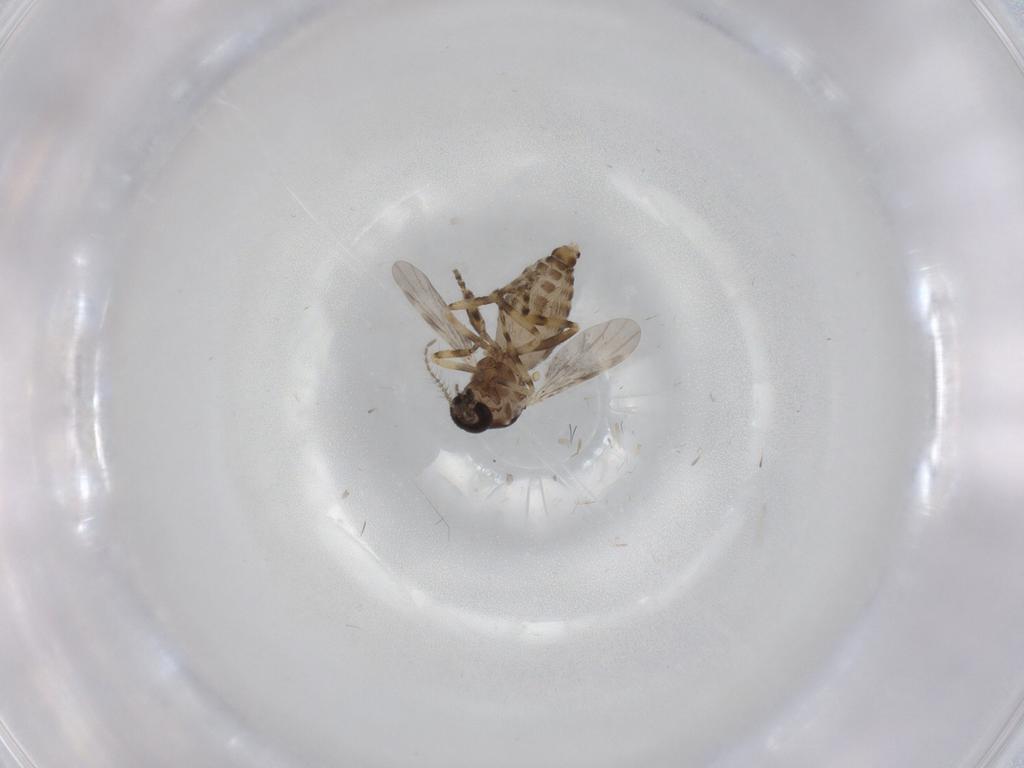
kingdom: Animalia
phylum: Arthropoda
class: Insecta
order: Diptera
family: Ceratopogonidae
